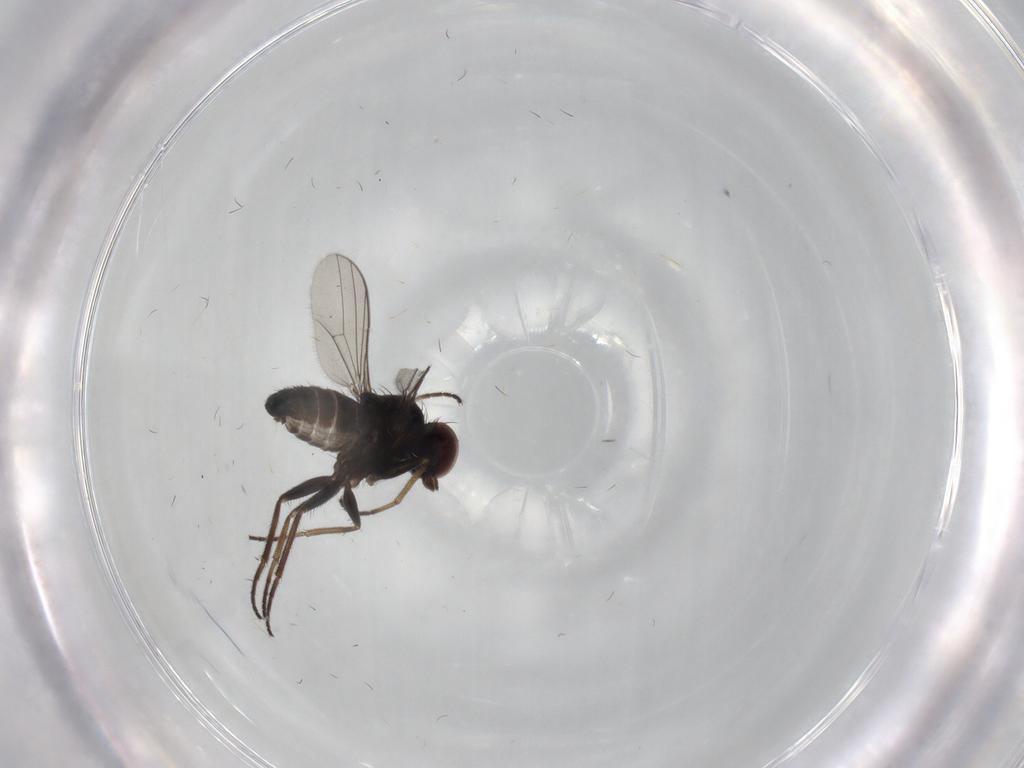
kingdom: Animalia
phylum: Arthropoda
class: Insecta
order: Diptera
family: Dolichopodidae
